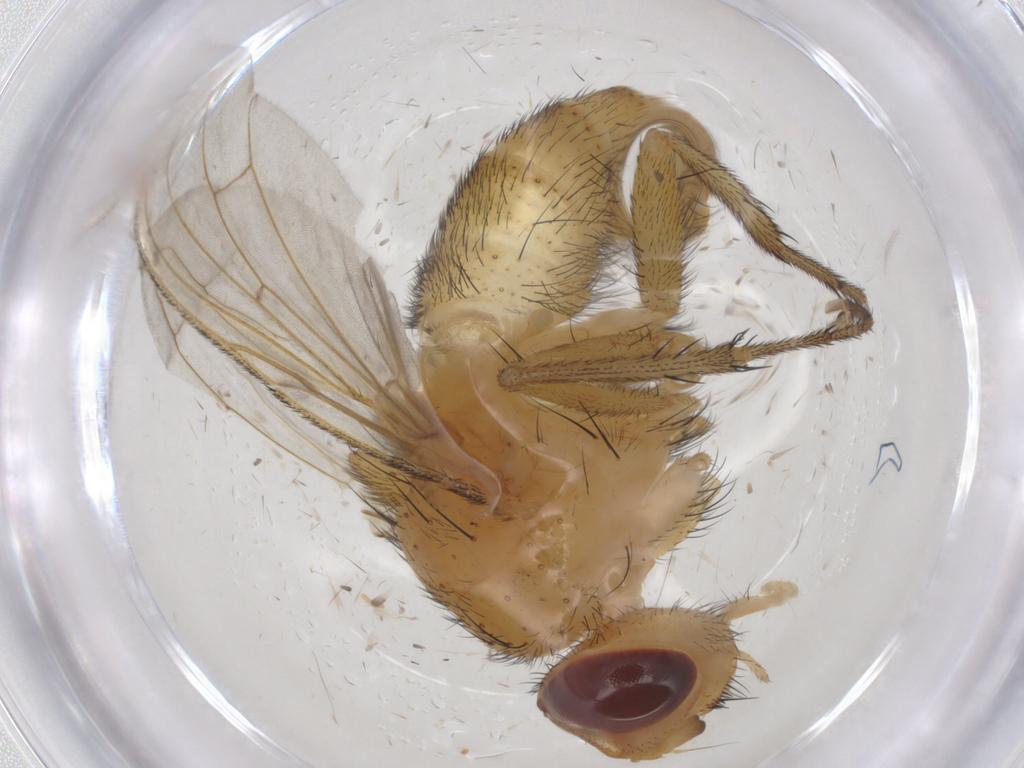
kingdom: Animalia
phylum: Arthropoda
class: Insecta
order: Diptera
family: Tachinidae
